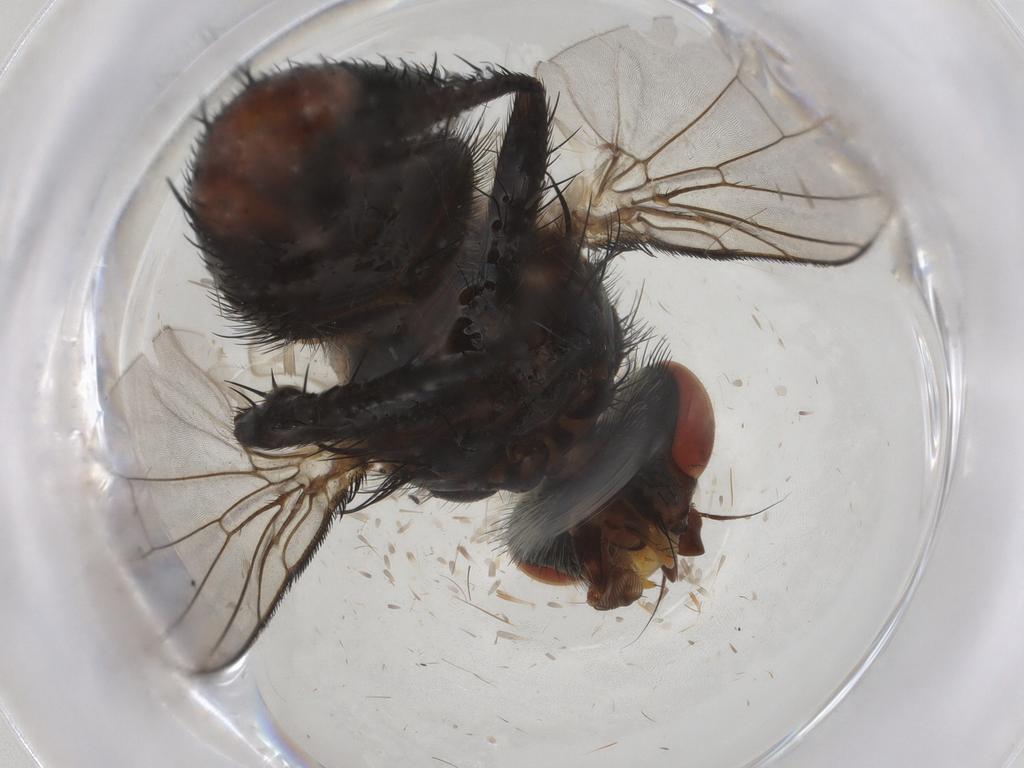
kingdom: Animalia
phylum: Arthropoda
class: Insecta
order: Diptera
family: Tachinidae
